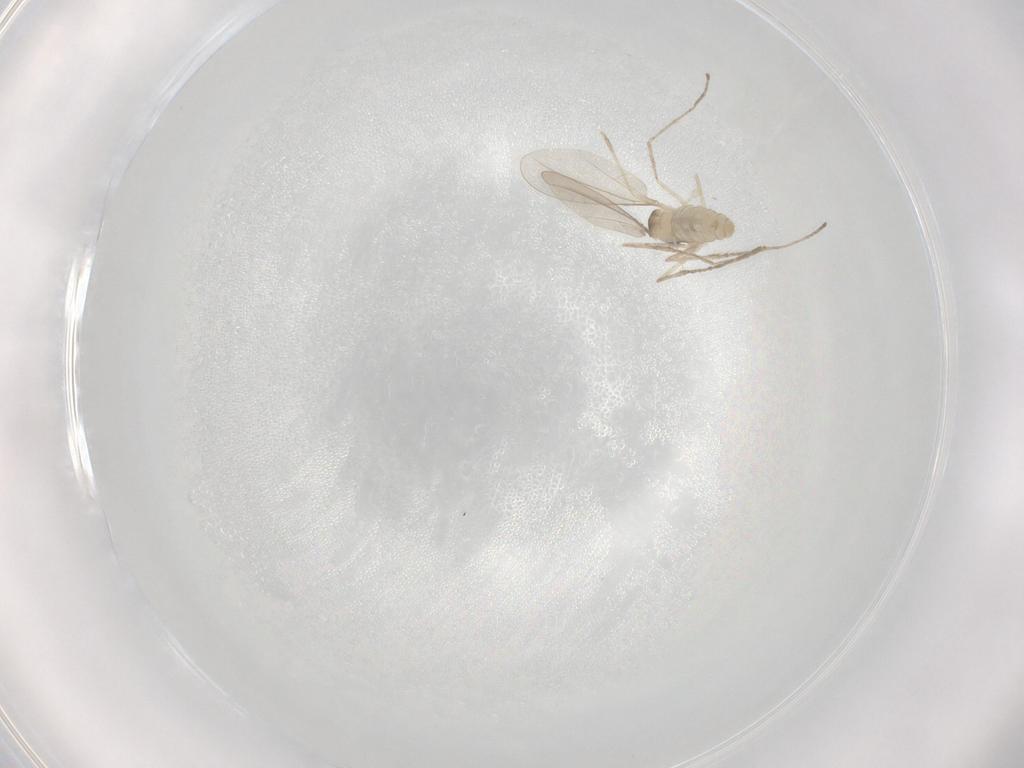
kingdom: Animalia
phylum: Arthropoda
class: Insecta
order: Diptera
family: Cecidomyiidae
